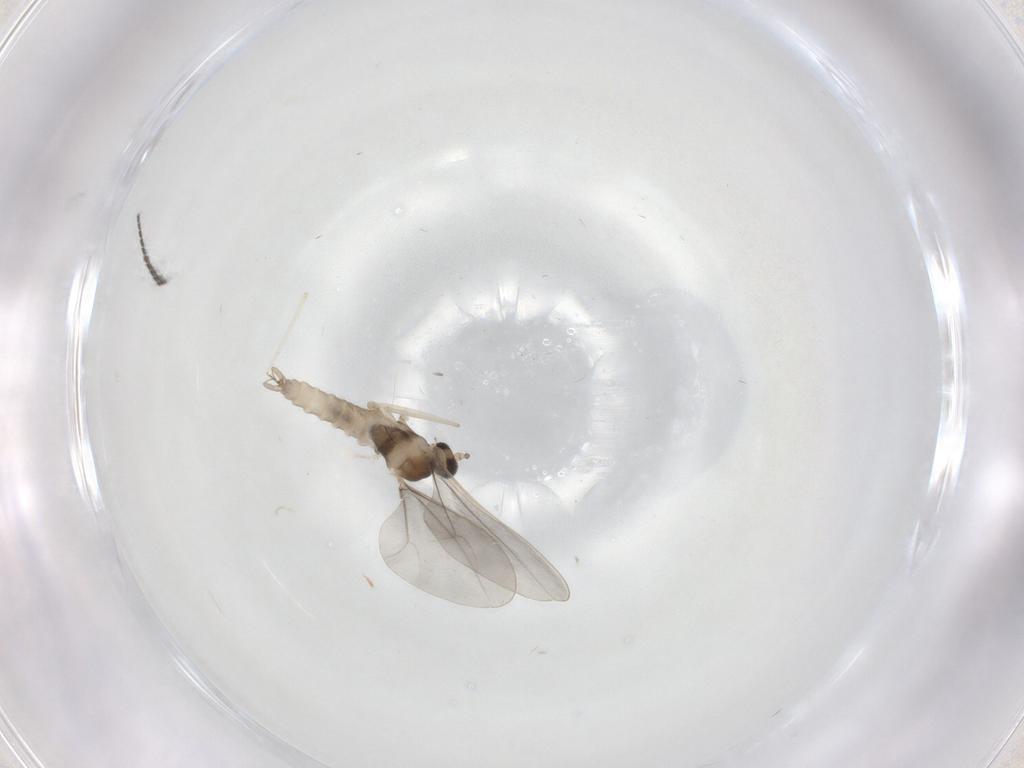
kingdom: Animalia
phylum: Arthropoda
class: Insecta
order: Diptera
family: Cecidomyiidae
